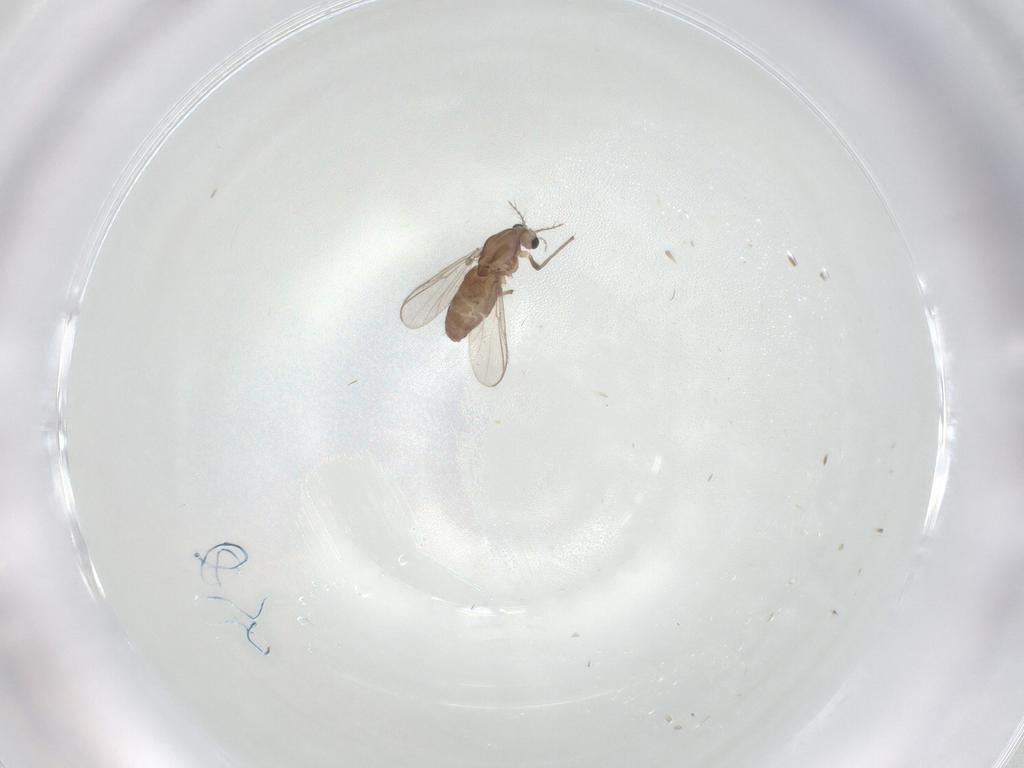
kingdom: Animalia
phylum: Arthropoda
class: Insecta
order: Diptera
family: Chironomidae
